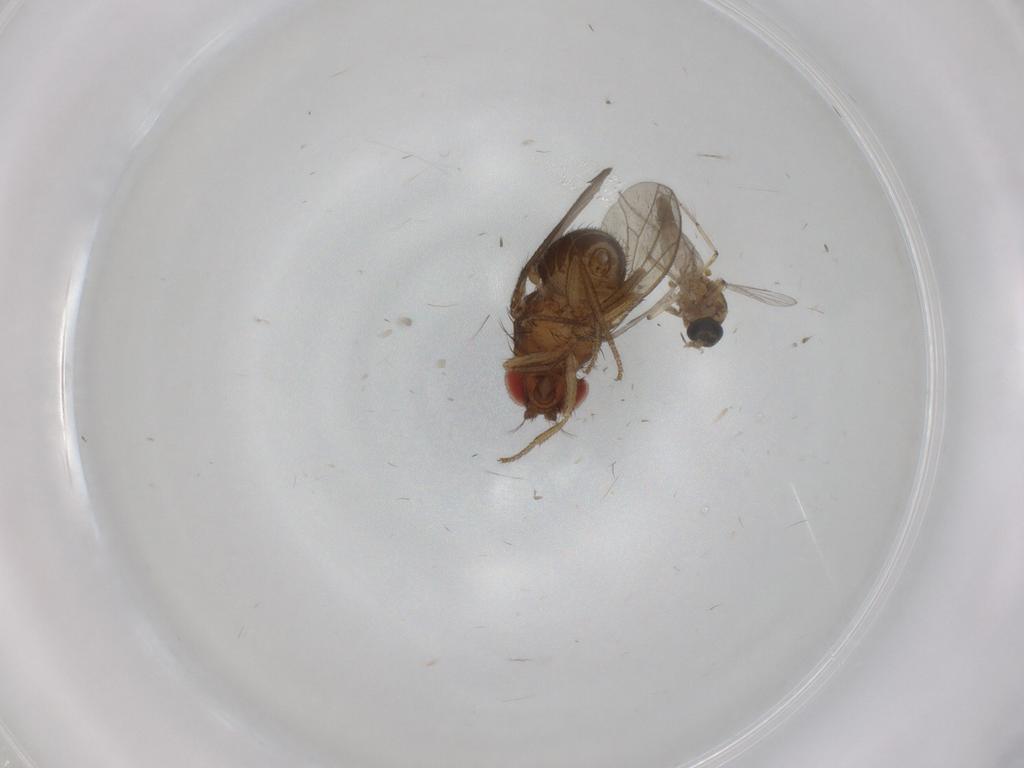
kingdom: Animalia
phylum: Arthropoda
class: Insecta
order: Diptera
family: Drosophilidae
